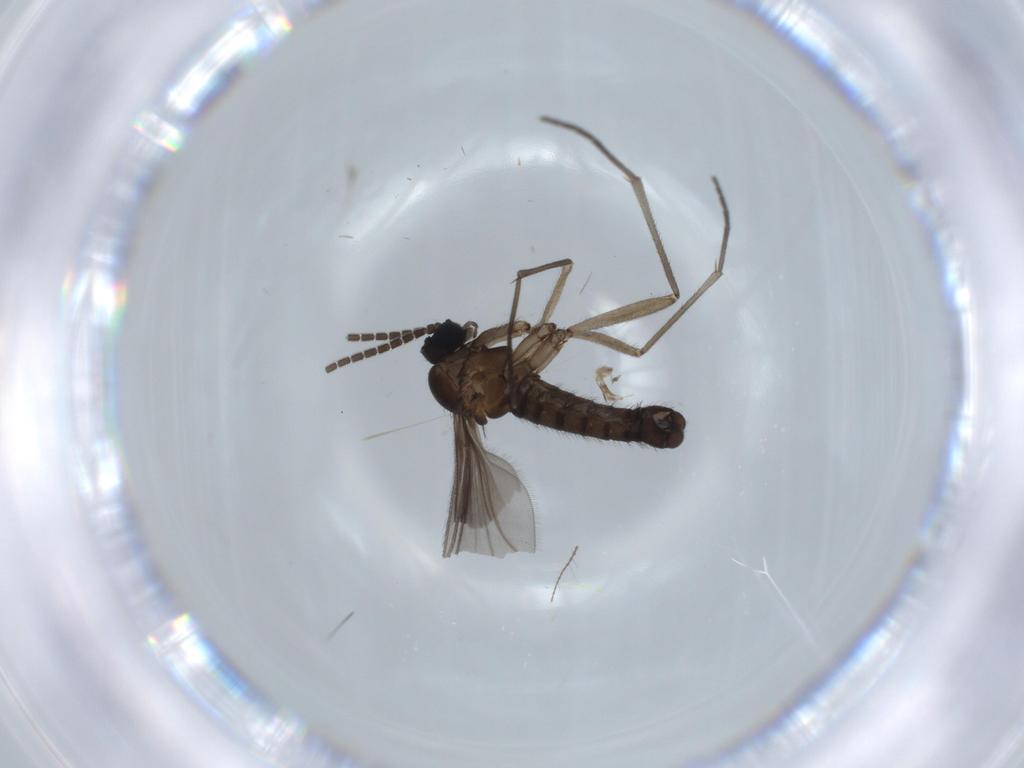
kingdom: Animalia
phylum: Arthropoda
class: Insecta
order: Diptera
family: Sciaridae
